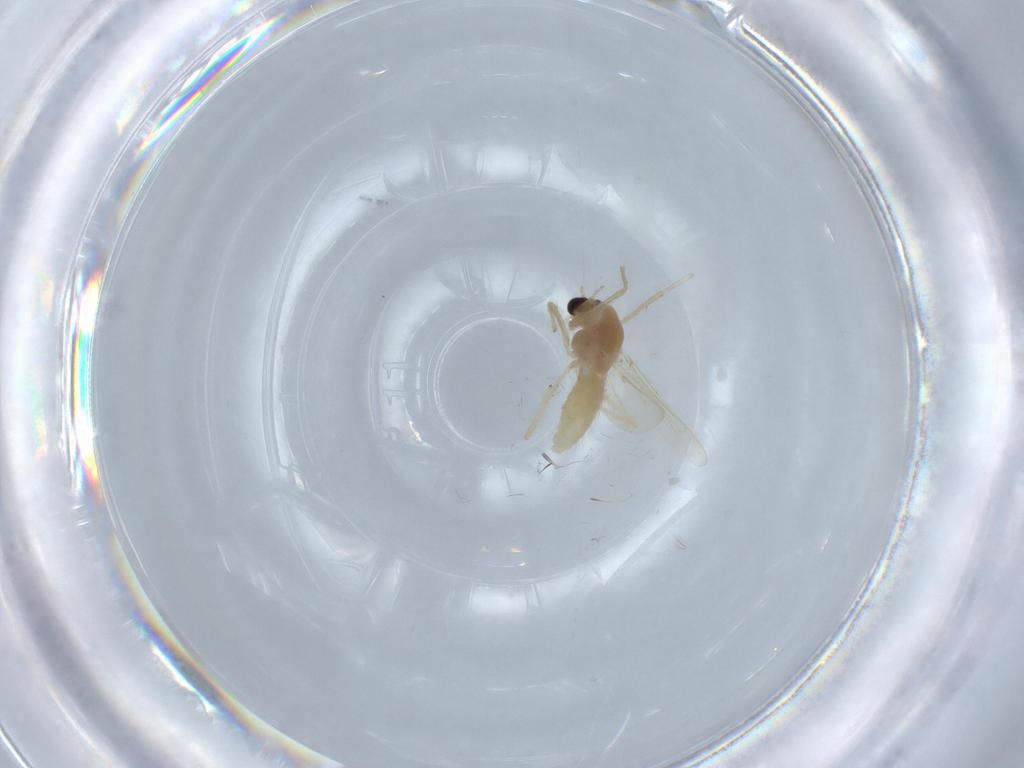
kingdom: Animalia
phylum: Arthropoda
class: Insecta
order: Diptera
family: Chironomidae
